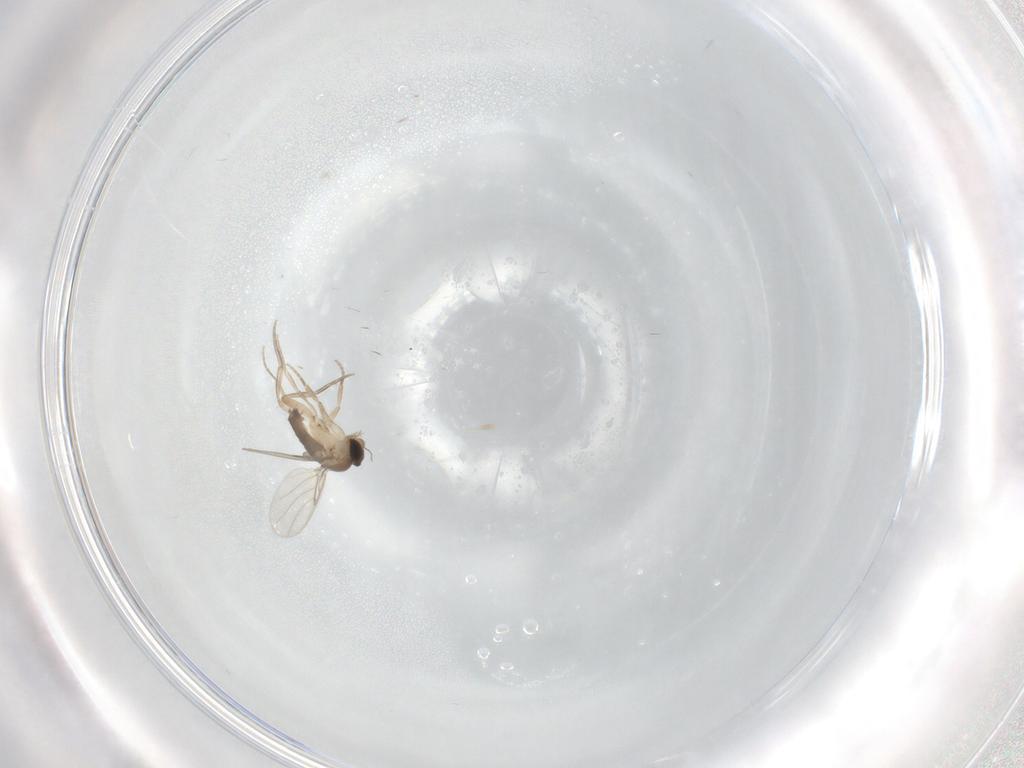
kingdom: Animalia
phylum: Arthropoda
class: Insecta
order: Diptera
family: Phoridae
